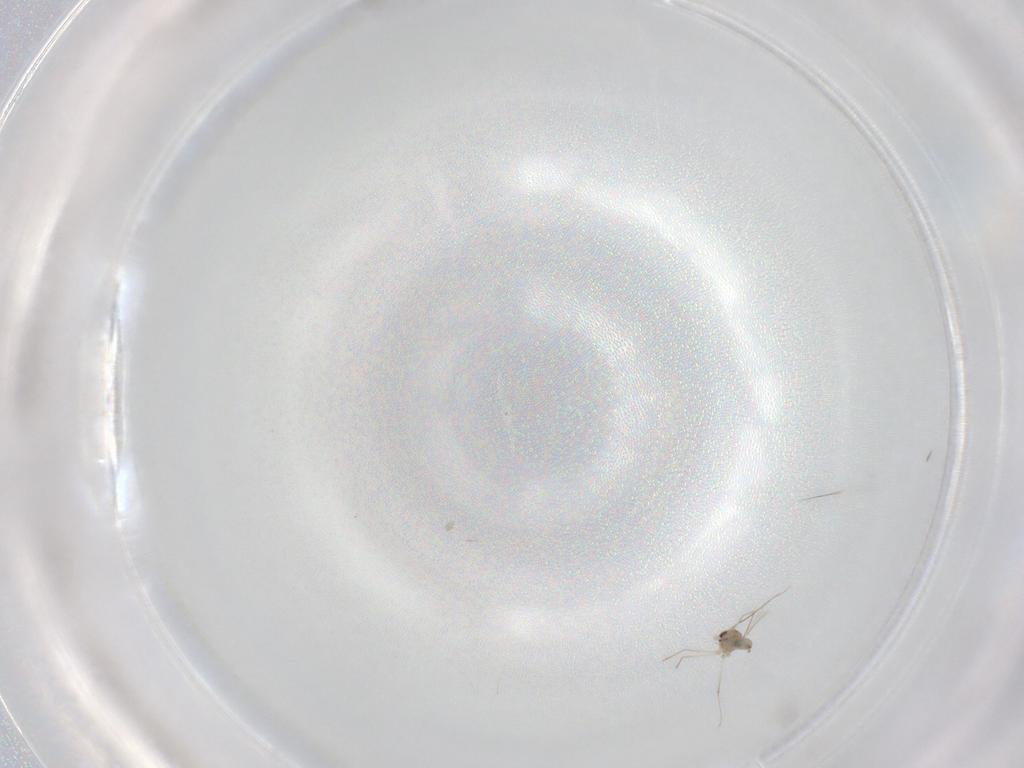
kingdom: Animalia
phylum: Arthropoda
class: Insecta
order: Diptera
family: Cecidomyiidae
